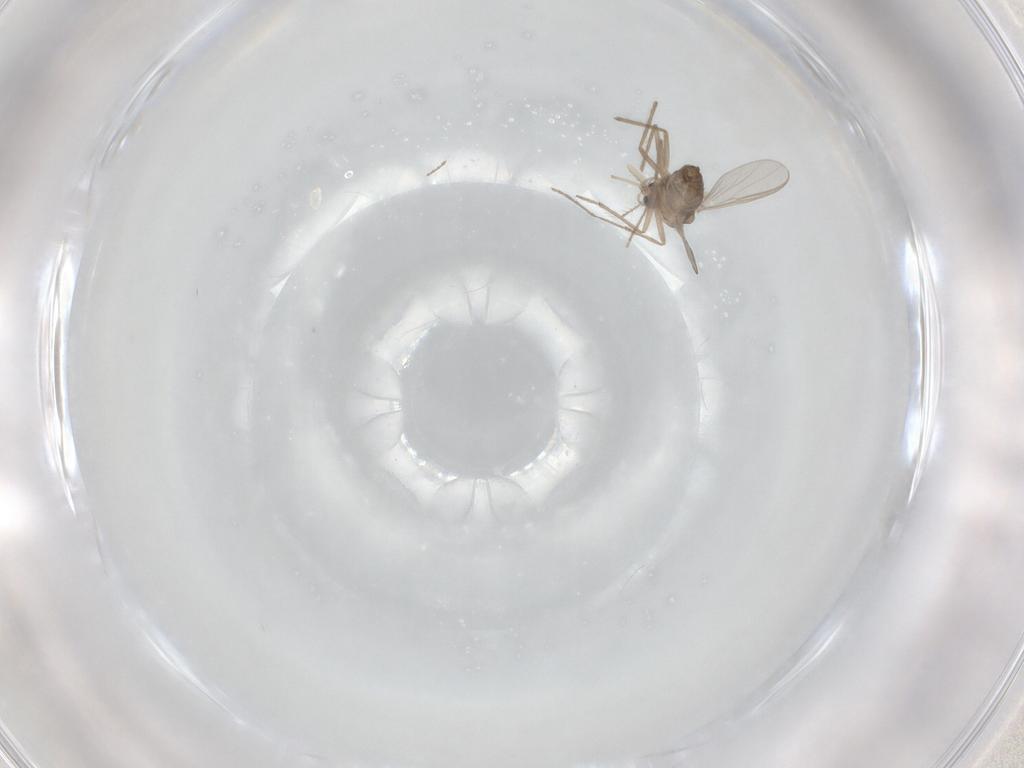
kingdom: Animalia
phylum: Arthropoda
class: Insecta
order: Diptera
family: Chironomidae
